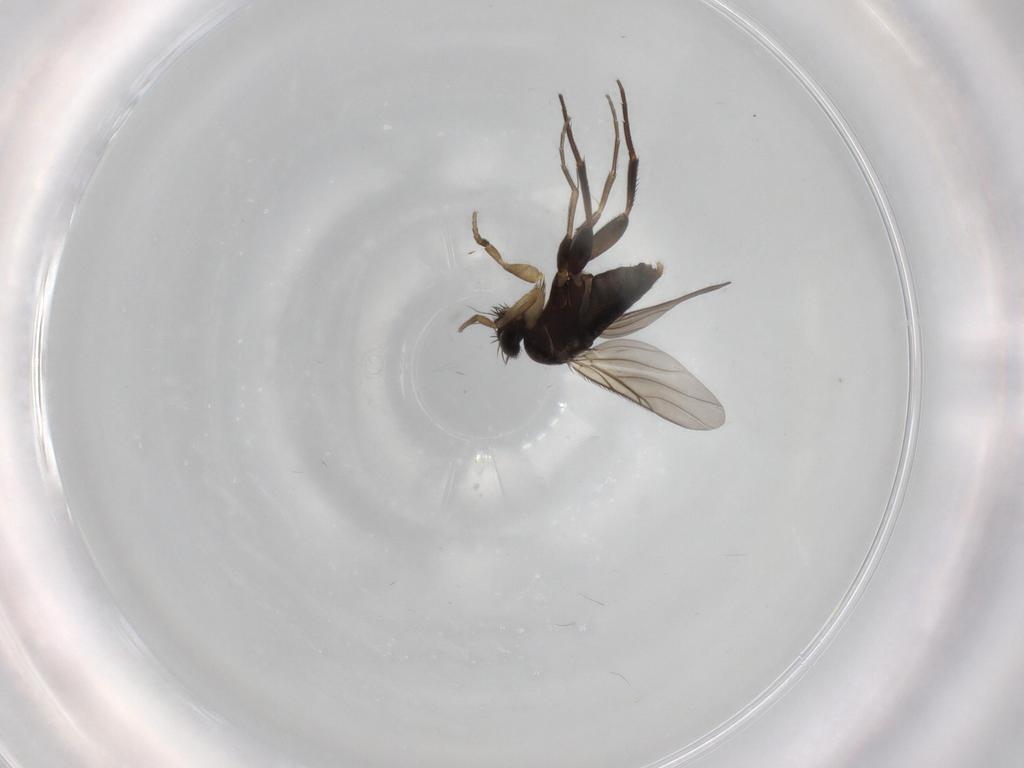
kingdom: Animalia
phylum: Arthropoda
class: Insecta
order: Diptera
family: Phoridae
